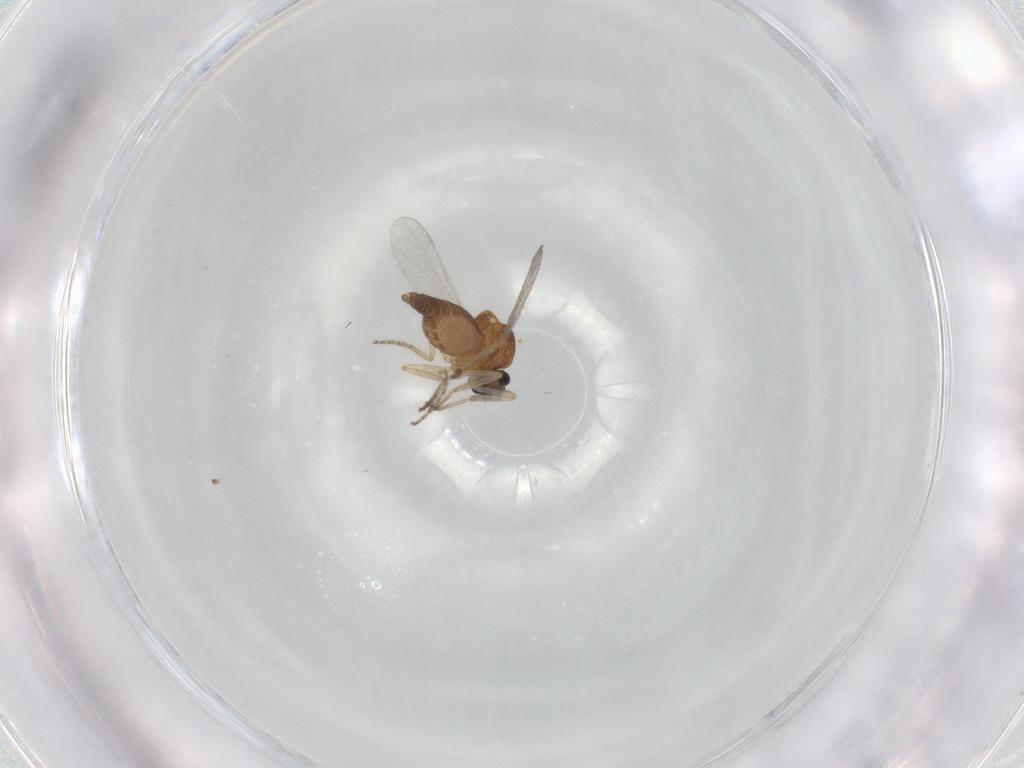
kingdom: Animalia
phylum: Arthropoda
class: Insecta
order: Diptera
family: Ceratopogonidae
